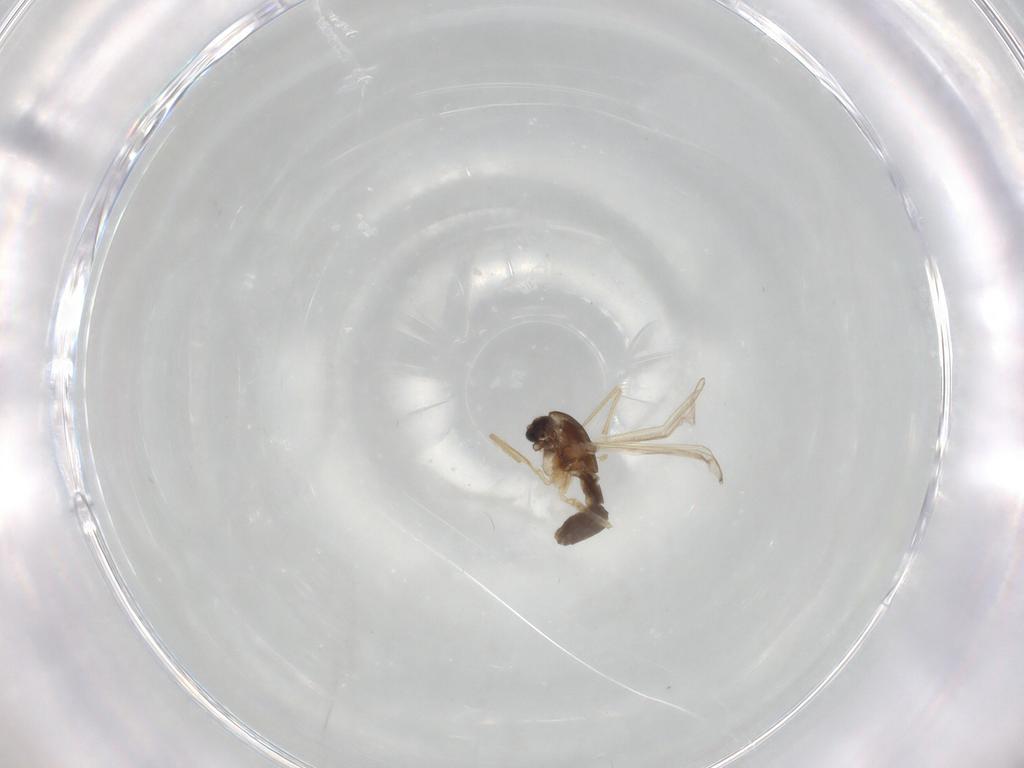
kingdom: Animalia
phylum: Arthropoda
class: Insecta
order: Diptera
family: Chironomidae
